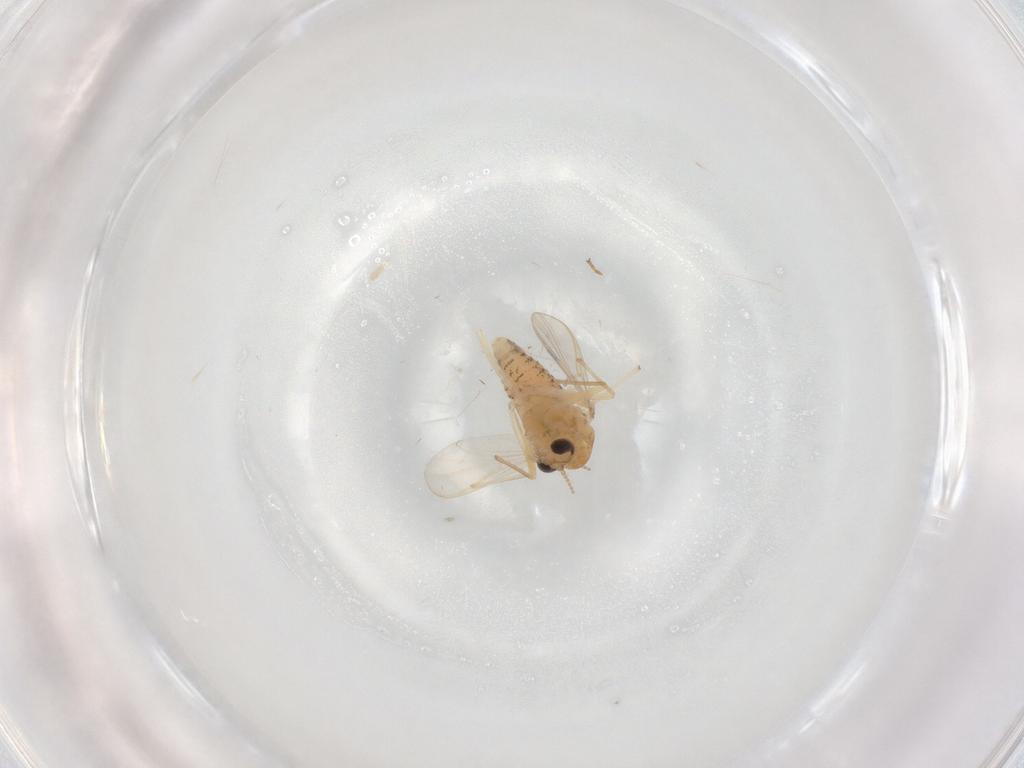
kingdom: Animalia
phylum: Arthropoda
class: Insecta
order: Diptera
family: Chironomidae
